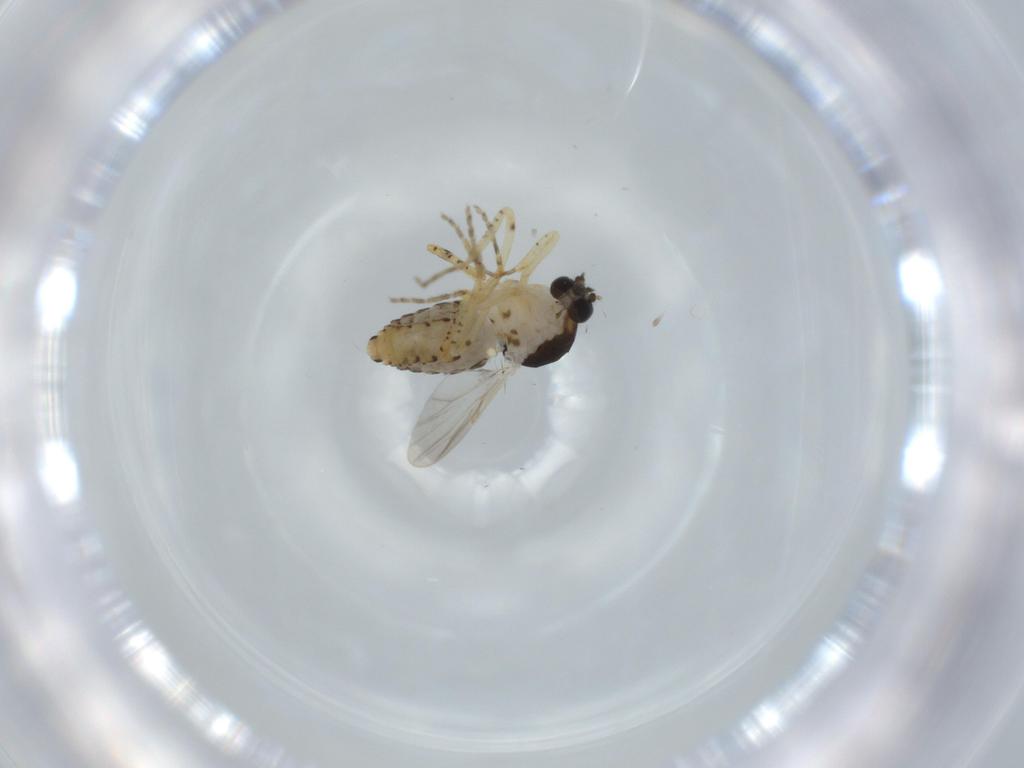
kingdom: Animalia
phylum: Arthropoda
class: Insecta
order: Diptera
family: Cecidomyiidae
